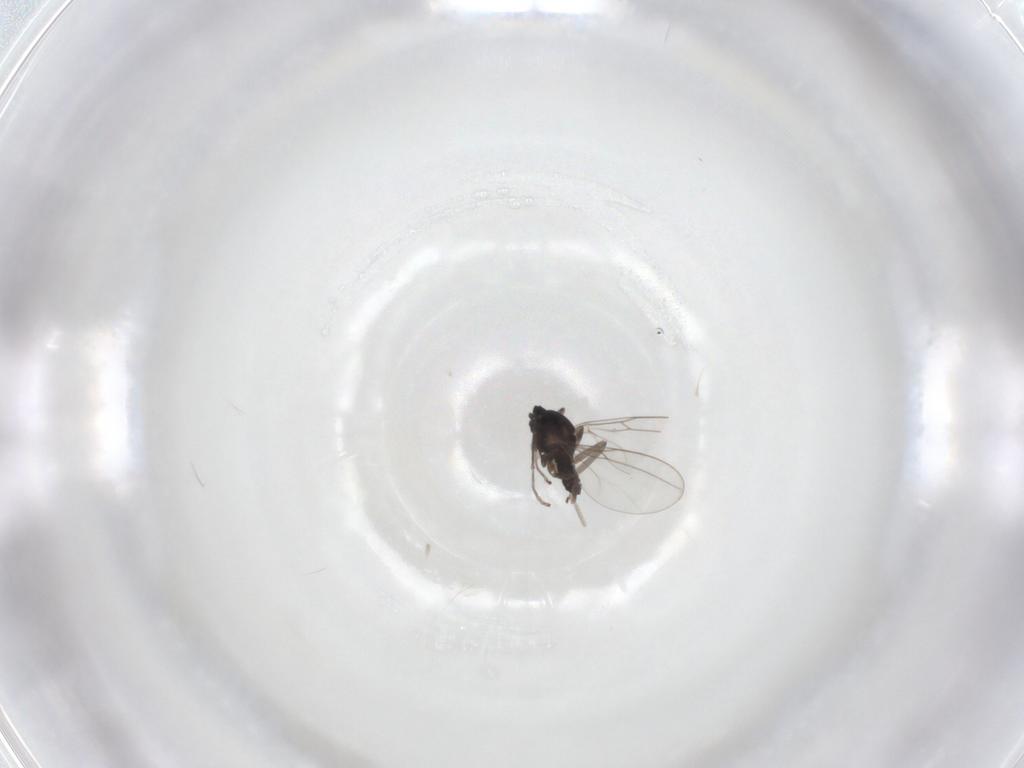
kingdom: Animalia
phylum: Arthropoda
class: Insecta
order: Diptera
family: Cecidomyiidae
